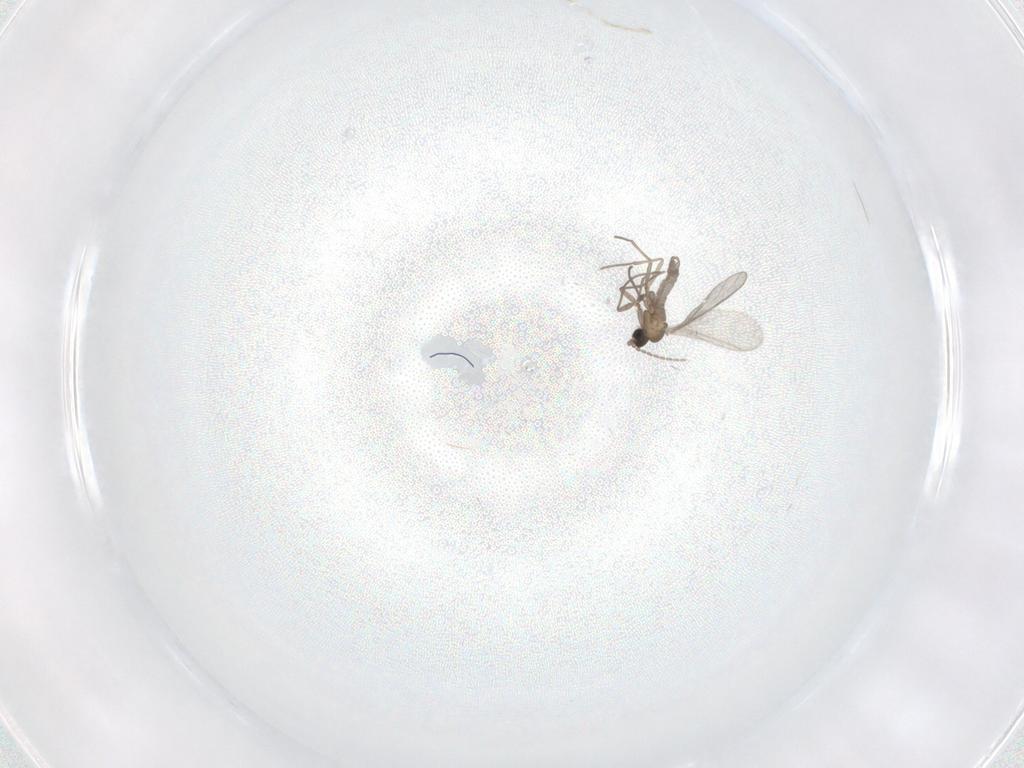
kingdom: Animalia
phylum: Arthropoda
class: Insecta
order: Diptera
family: Sciaridae
